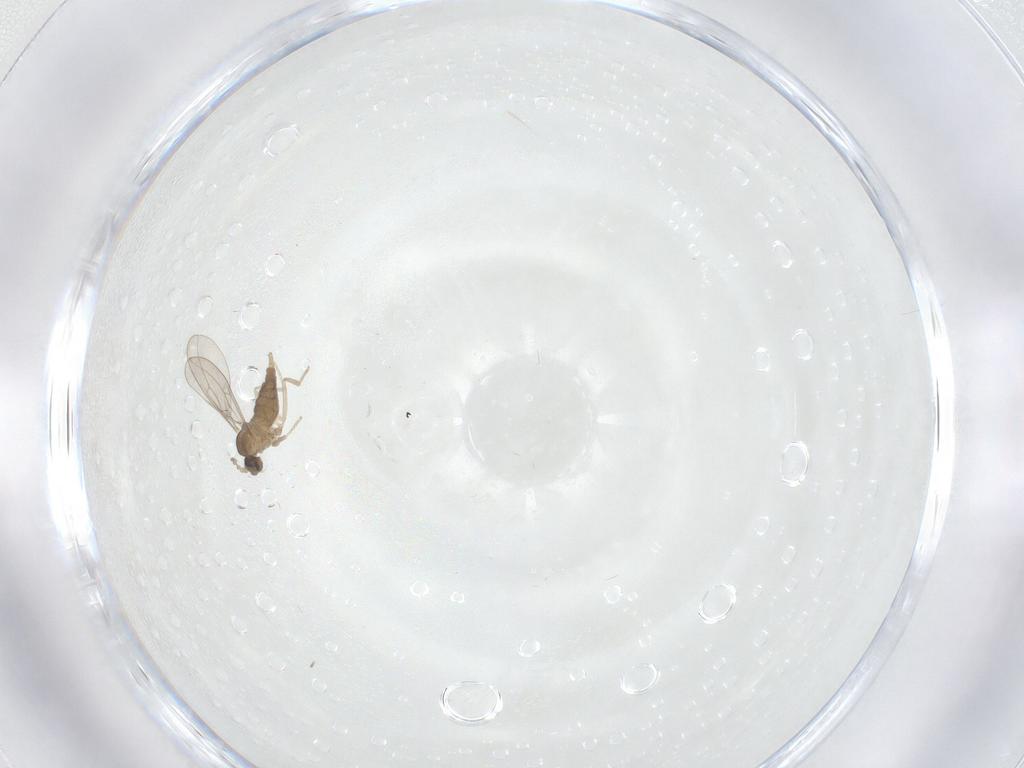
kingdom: Animalia
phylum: Arthropoda
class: Insecta
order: Diptera
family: Cecidomyiidae
